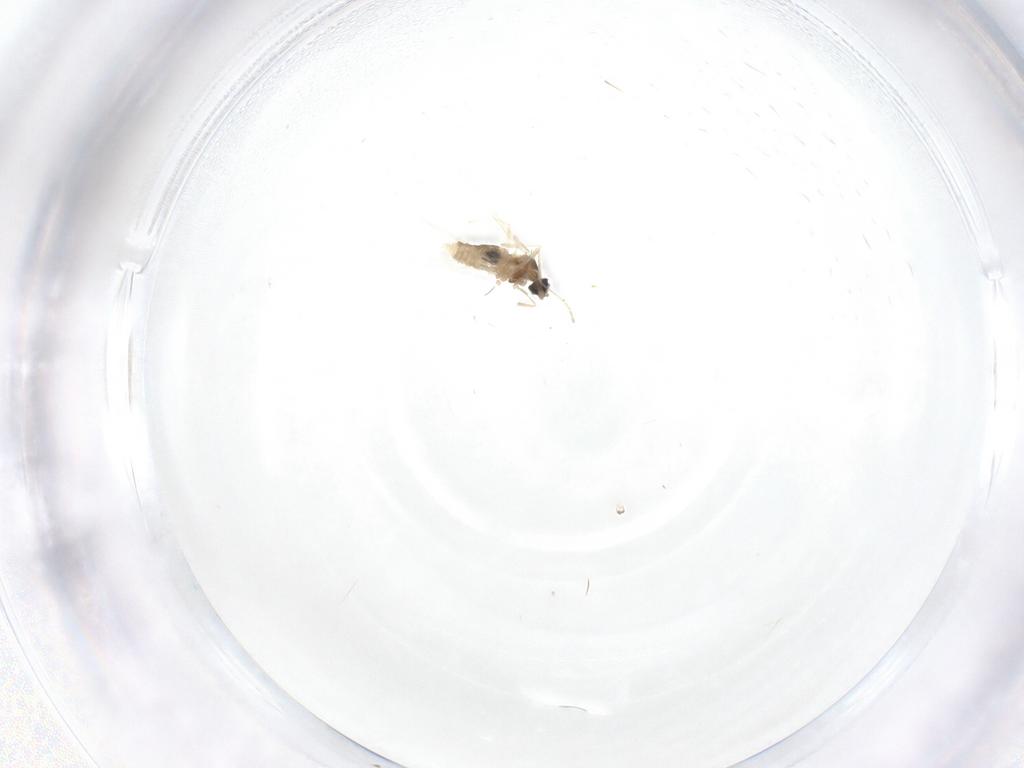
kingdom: Animalia
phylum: Arthropoda
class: Insecta
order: Diptera
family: Cecidomyiidae
